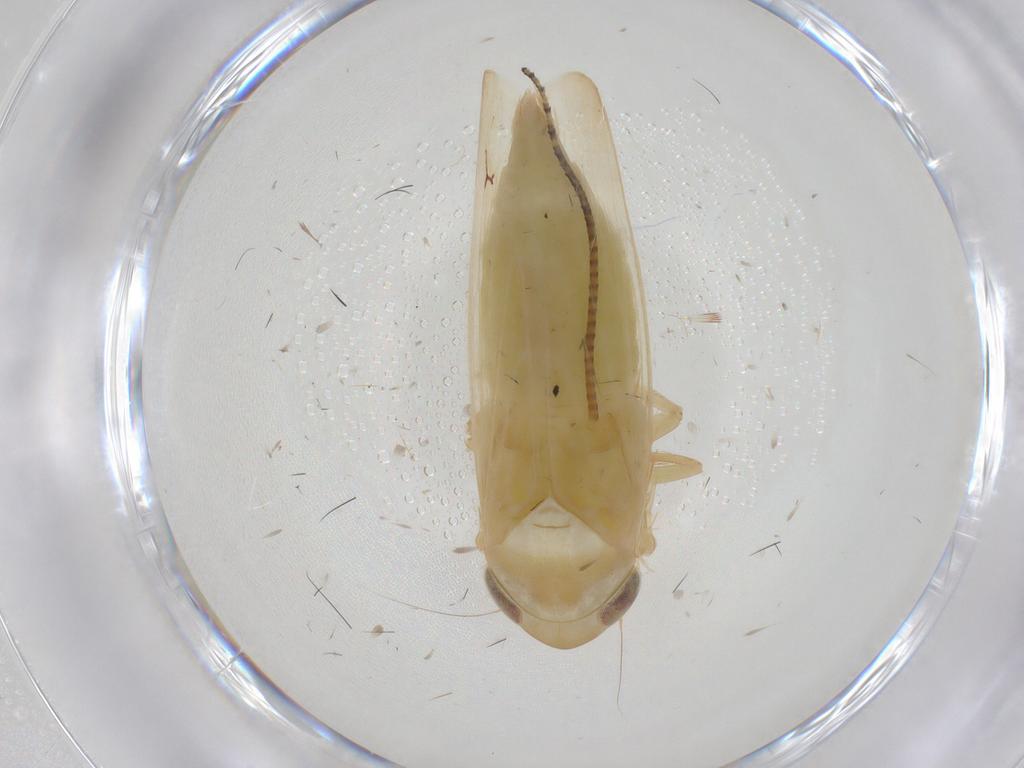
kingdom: Animalia
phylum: Arthropoda
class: Insecta
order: Hemiptera
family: Cicadellidae
